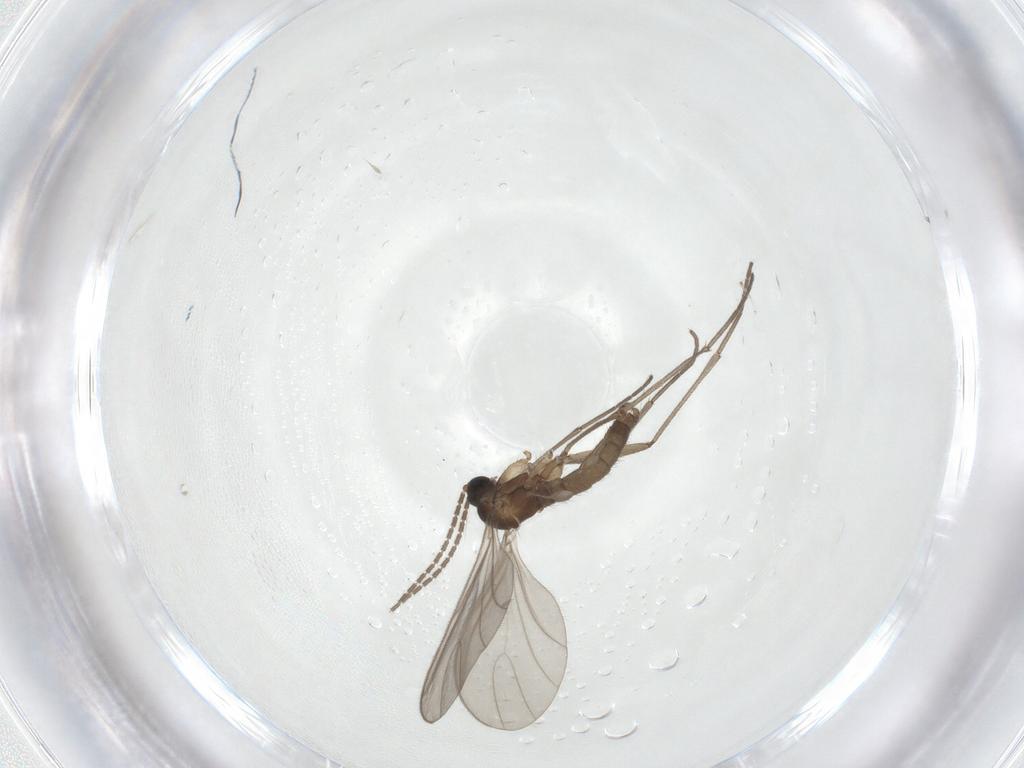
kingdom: Animalia
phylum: Arthropoda
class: Insecta
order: Diptera
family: Sciaridae
